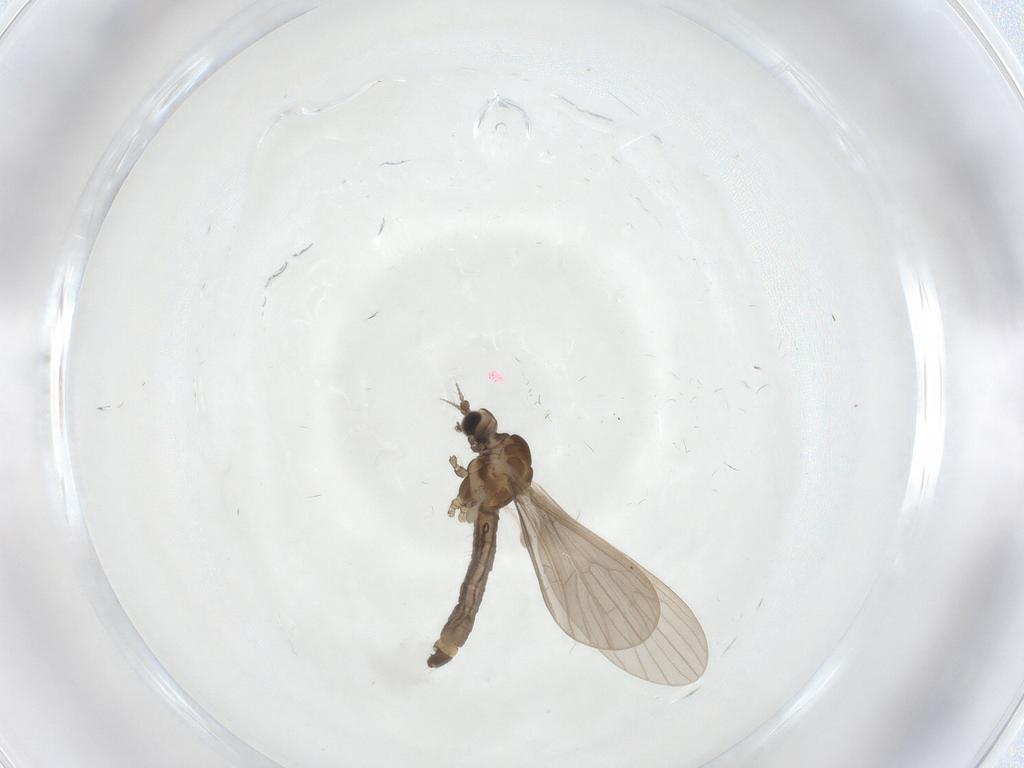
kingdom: Animalia
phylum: Arthropoda
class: Insecta
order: Diptera
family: Limoniidae
